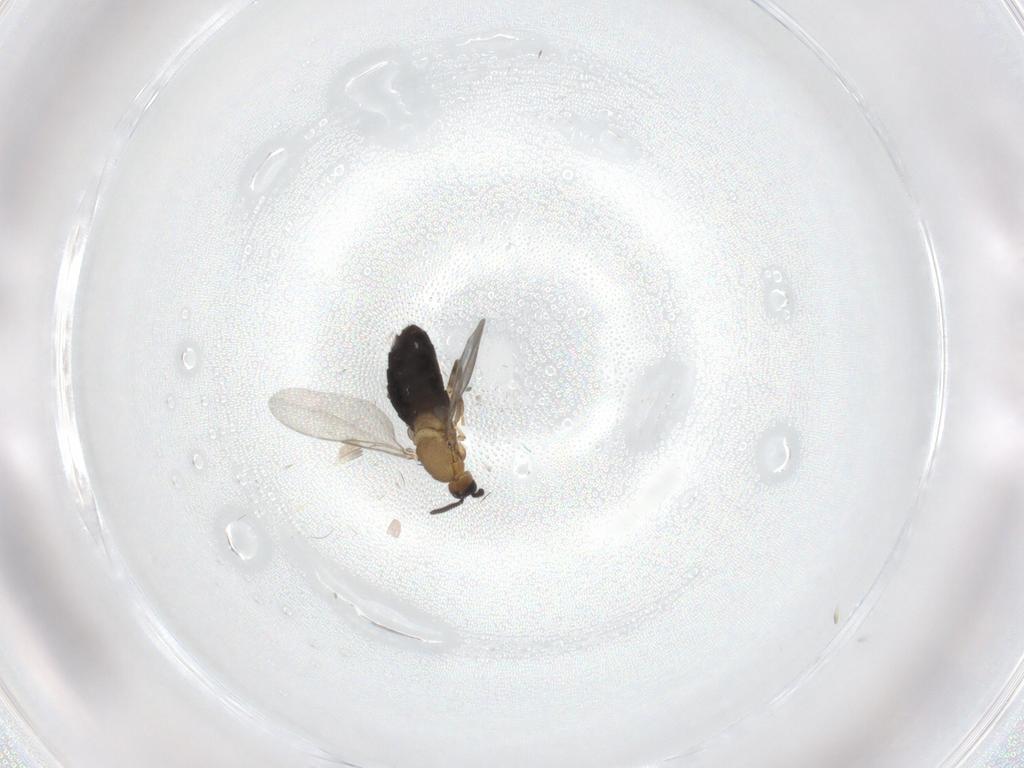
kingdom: Animalia
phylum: Arthropoda
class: Insecta
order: Diptera
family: Scatopsidae
